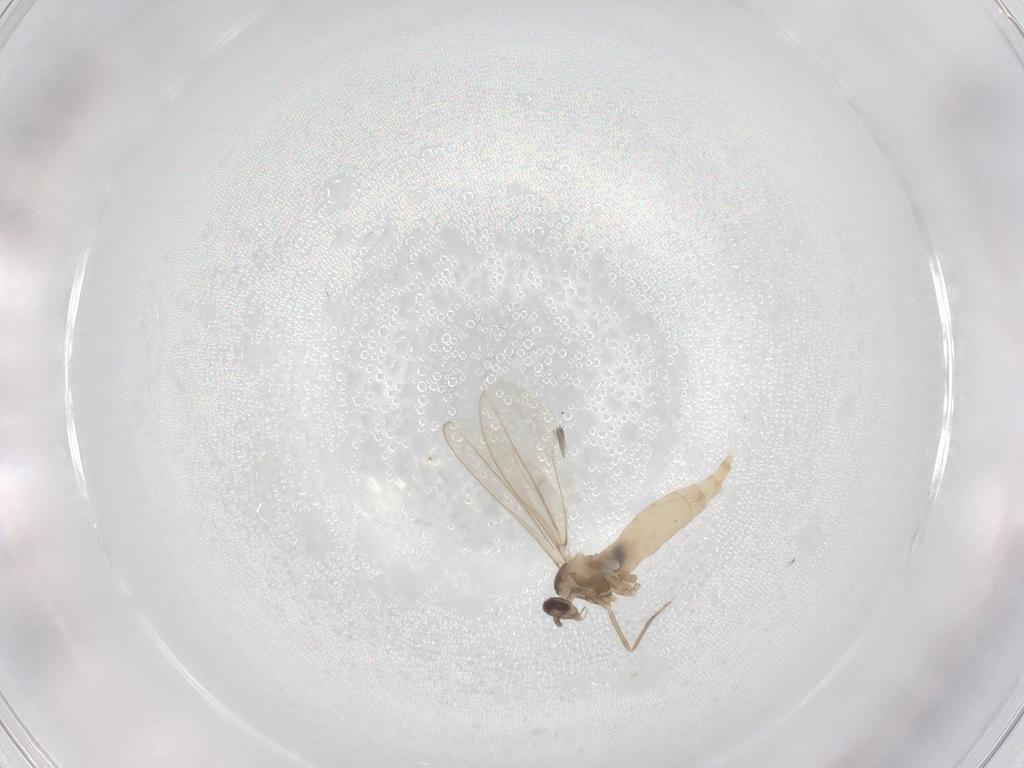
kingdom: Animalia
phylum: Arthropoda
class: Insecta
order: Diptera
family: Cecidomyiidae
